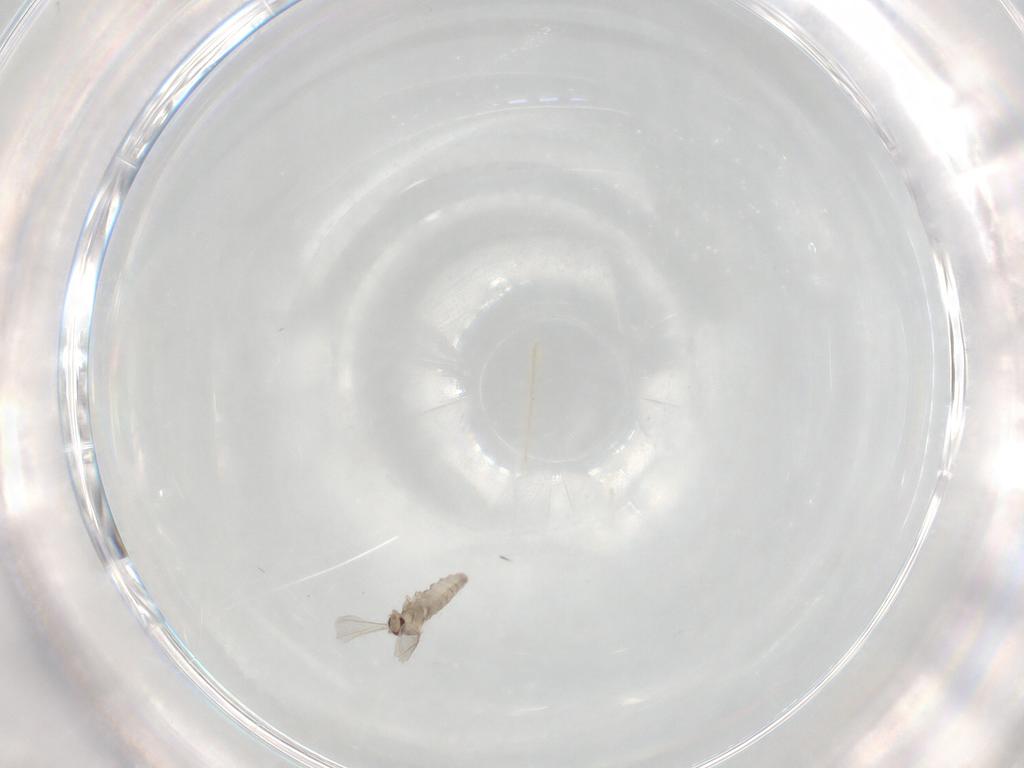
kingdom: Animalia
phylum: Arthropoda
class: Insecta
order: Diptera
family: Cecidomyiidae
